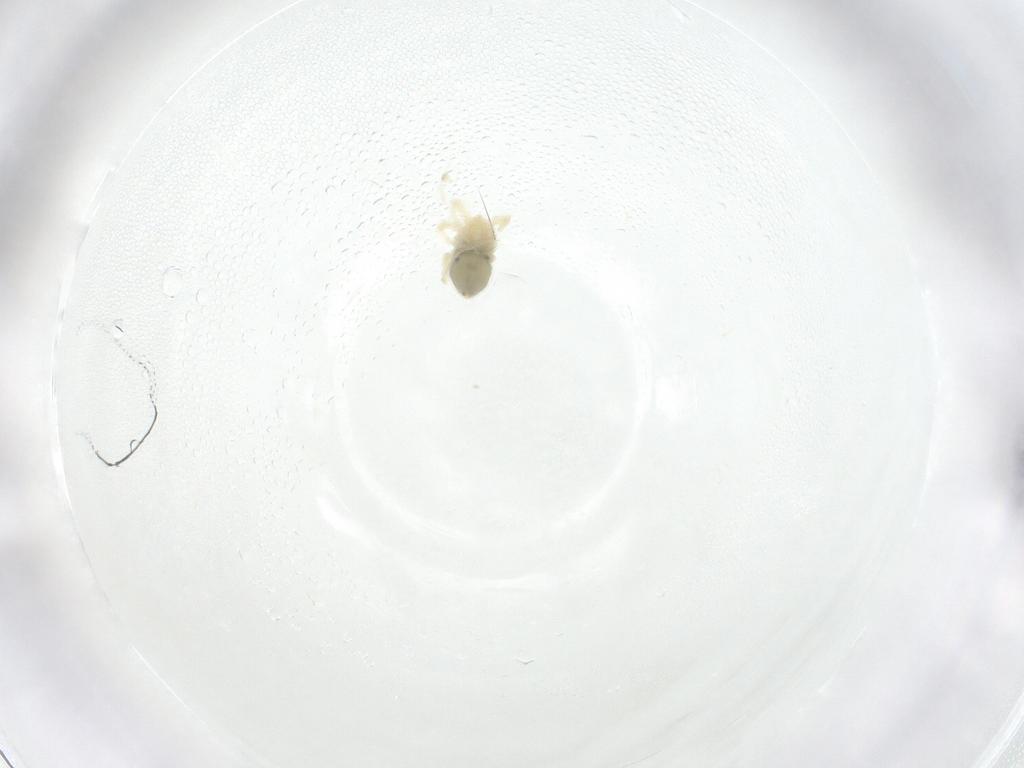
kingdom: Animalia
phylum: Arthropoda
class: Arachnida
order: Trombidiformes
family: Anystidae
